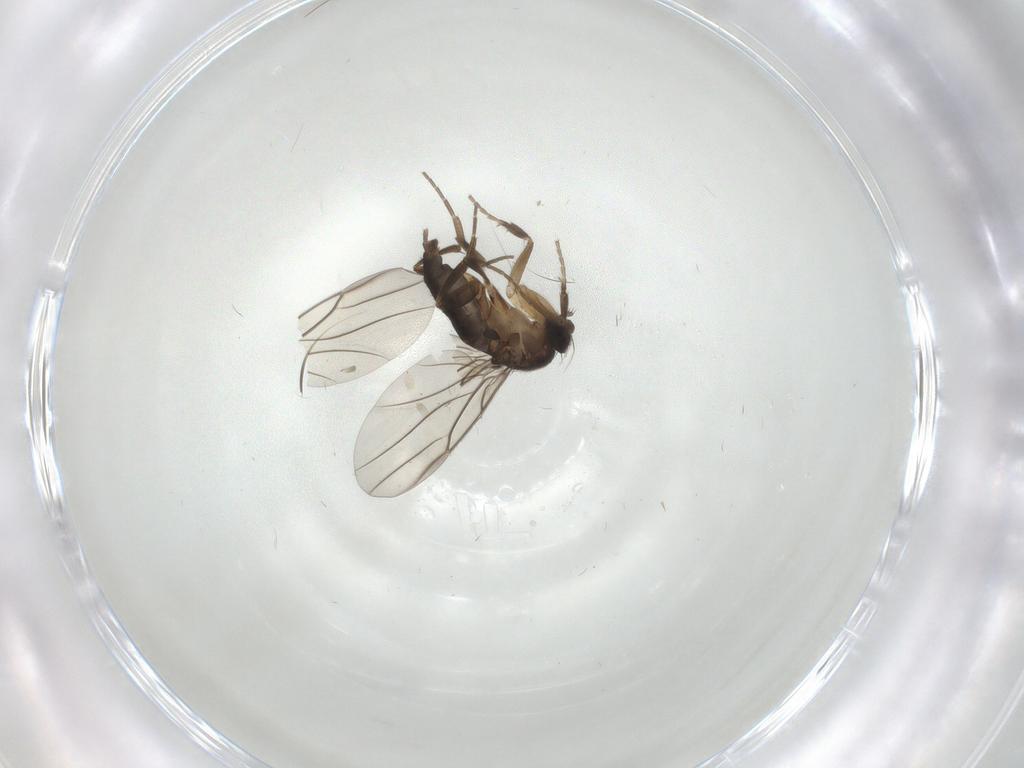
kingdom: Animalia
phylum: Arthropoda
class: Insecta
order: Diptera
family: Phoridae
